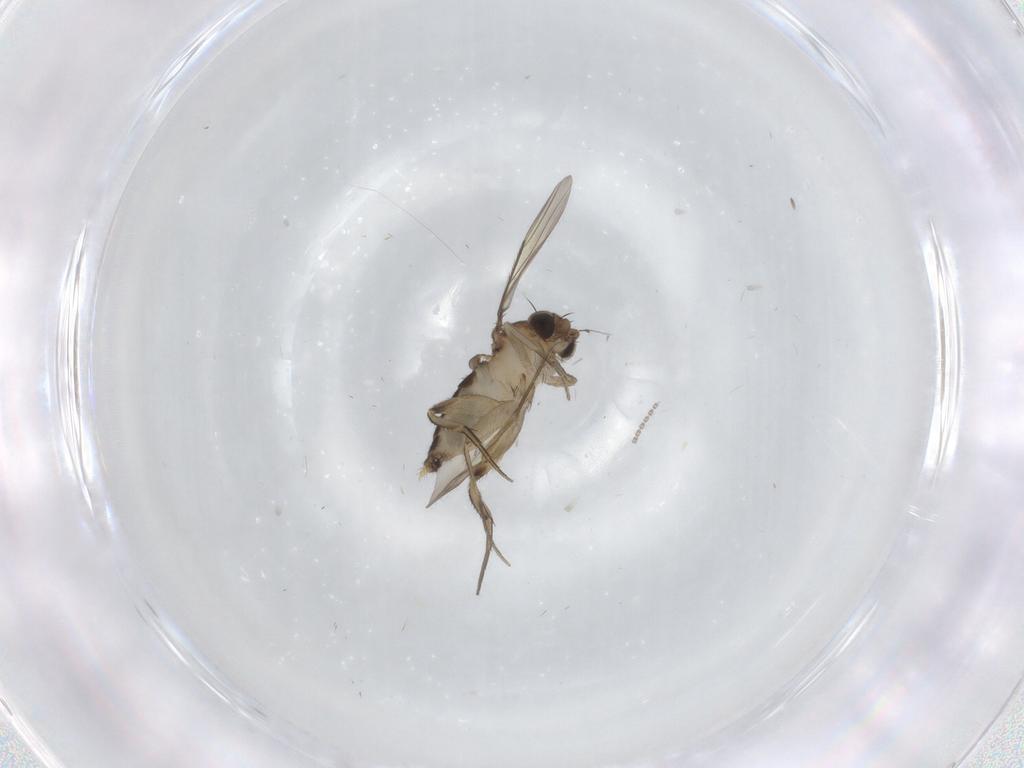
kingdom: Animalia
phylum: Arthropoda
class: Insecta
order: Diptera
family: Phoridae
